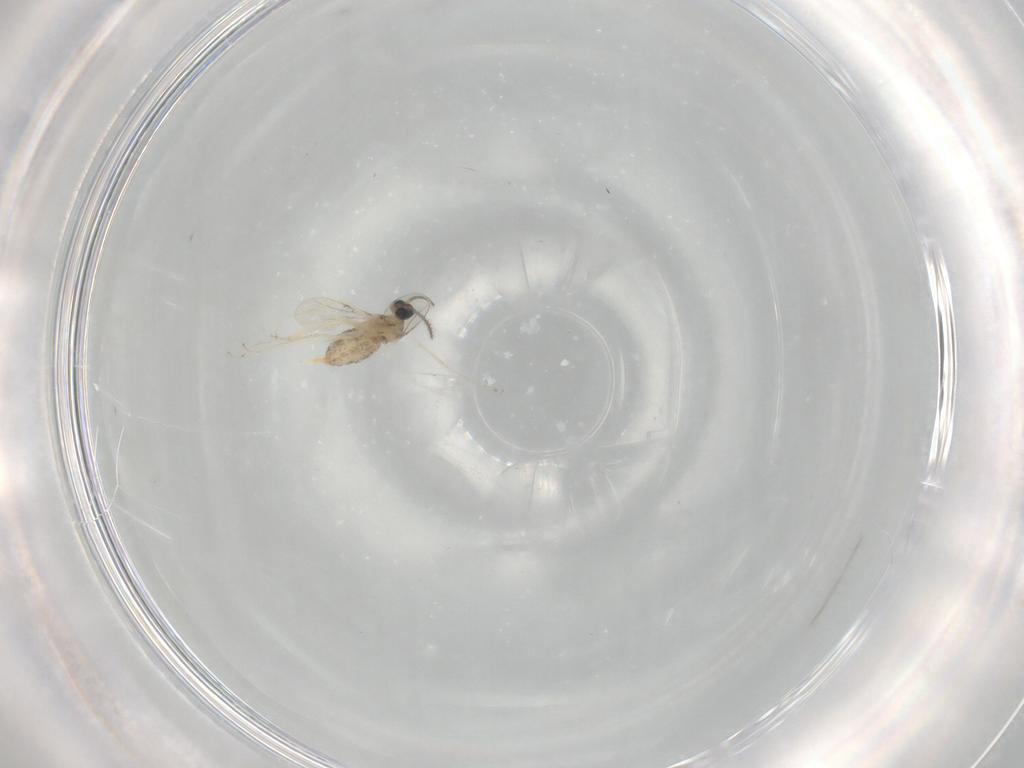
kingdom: Animalia
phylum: Arthropoda
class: Insecta
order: Diptera
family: Cecidomyiidae
